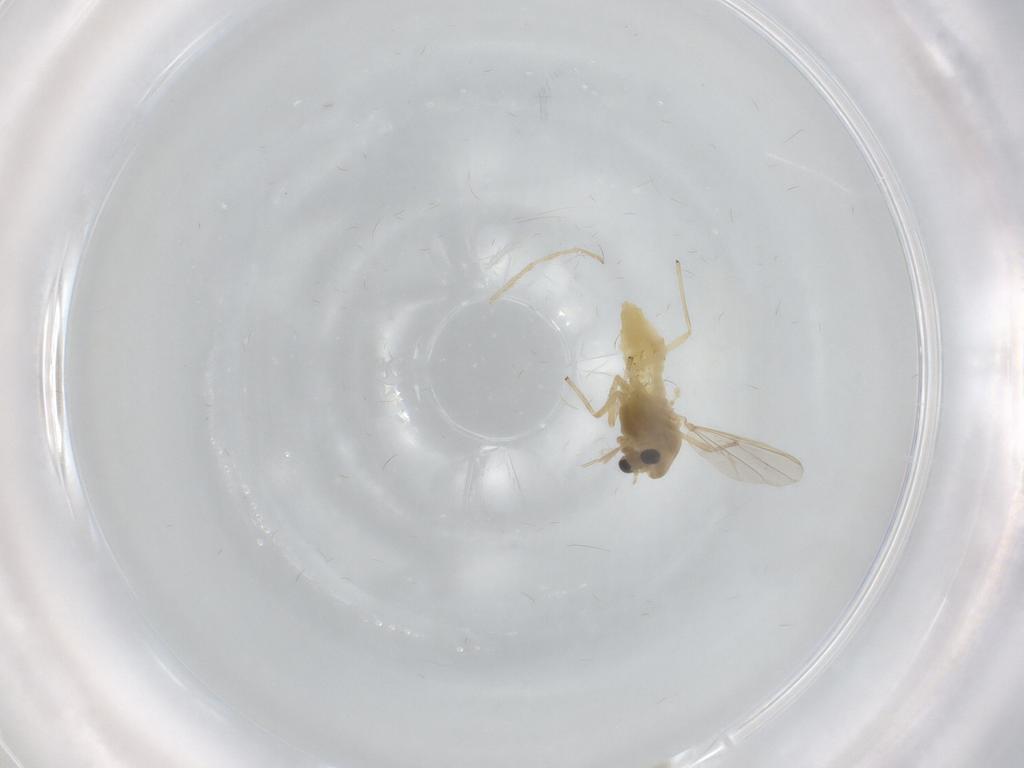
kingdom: Animalia
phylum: Arthropoda
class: Insecta
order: Diptera
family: Chironomidae
